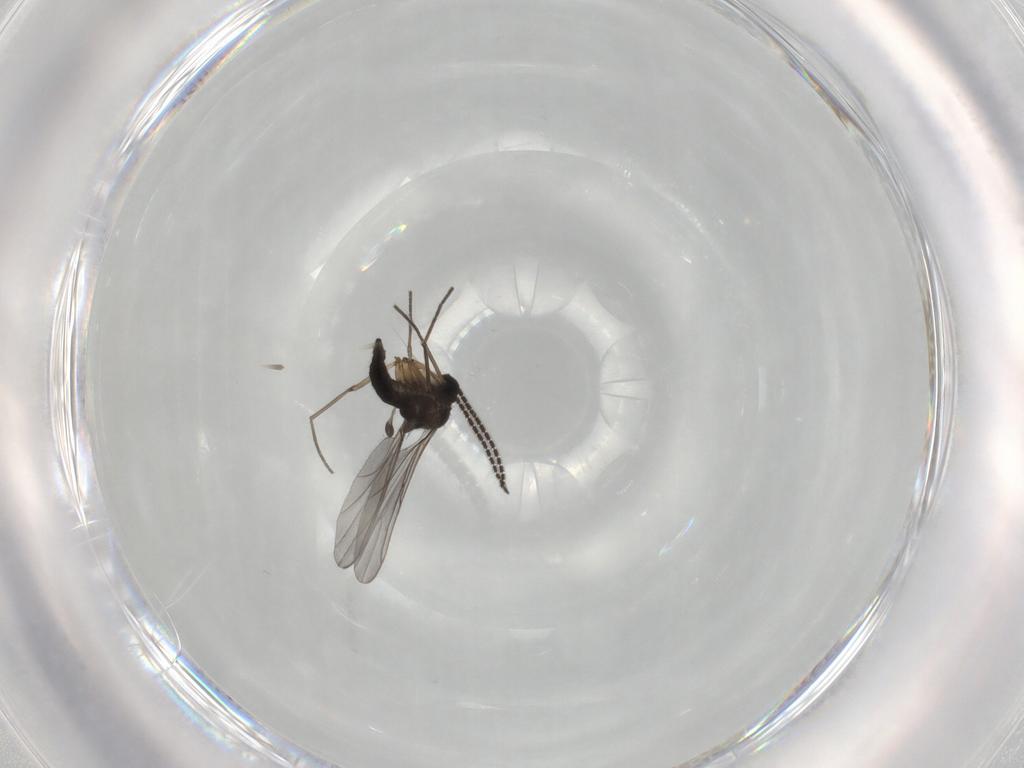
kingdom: Animalia
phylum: Arthropoda
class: Insecta
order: Diptera
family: Sciaridae
